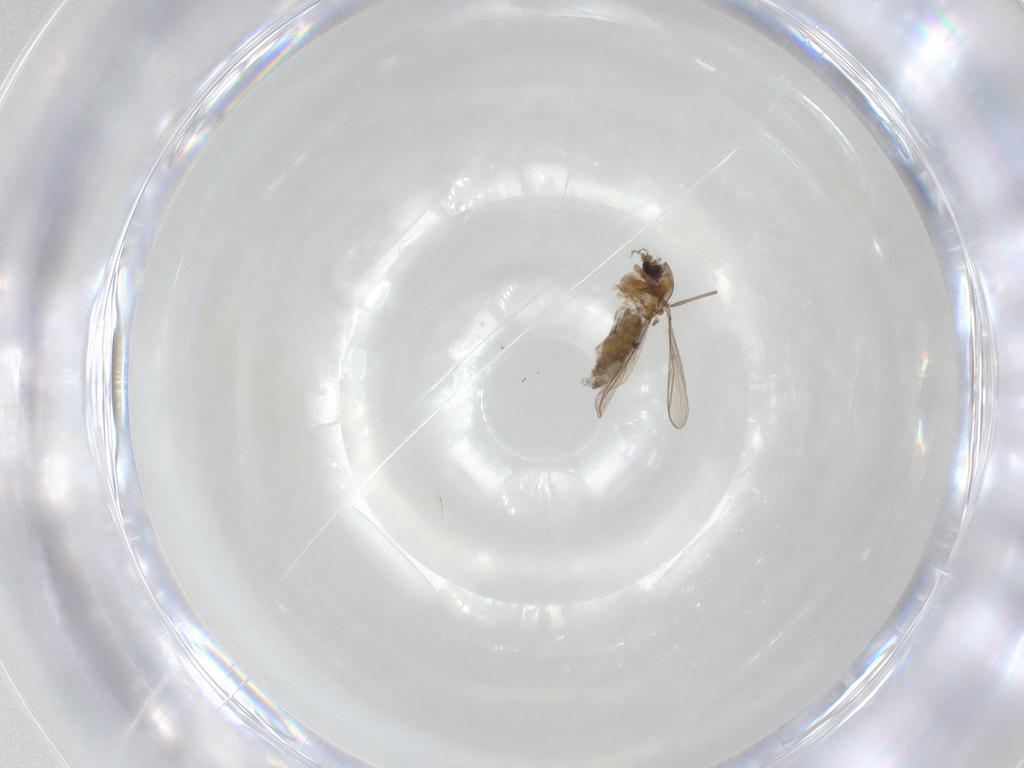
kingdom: Animalia
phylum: Arthropoda
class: Insecta
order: Diptera
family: Chironomidae
